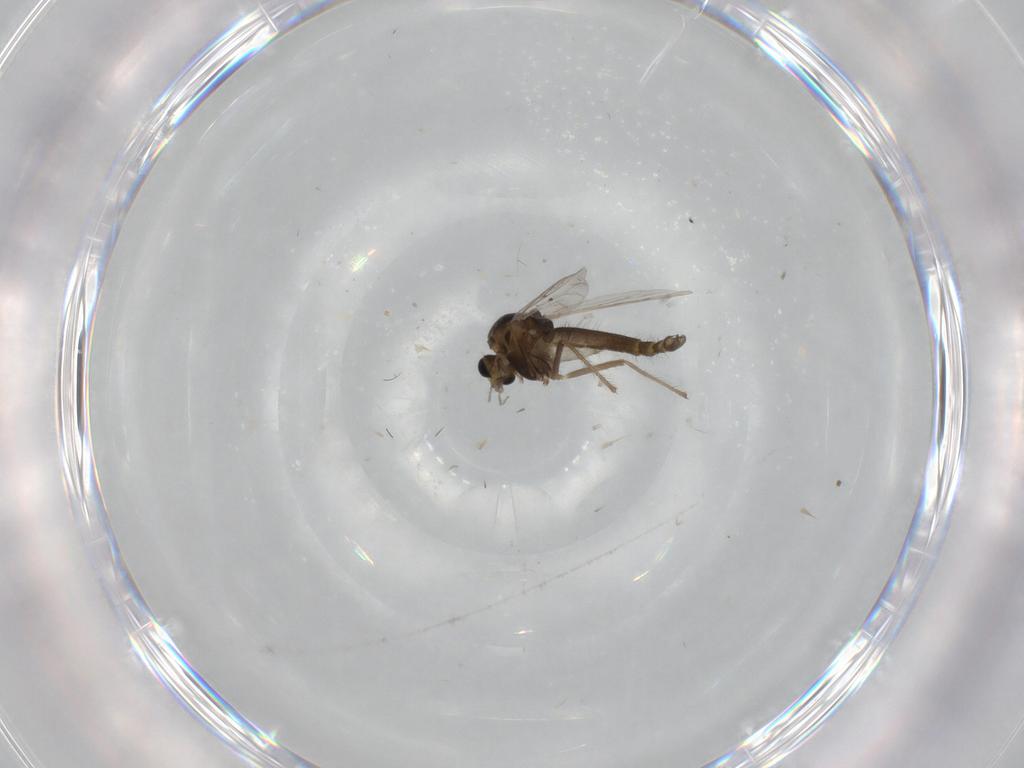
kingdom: Animalia
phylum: Arthropoda
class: Insecta
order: Diptera
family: Chironomidae
